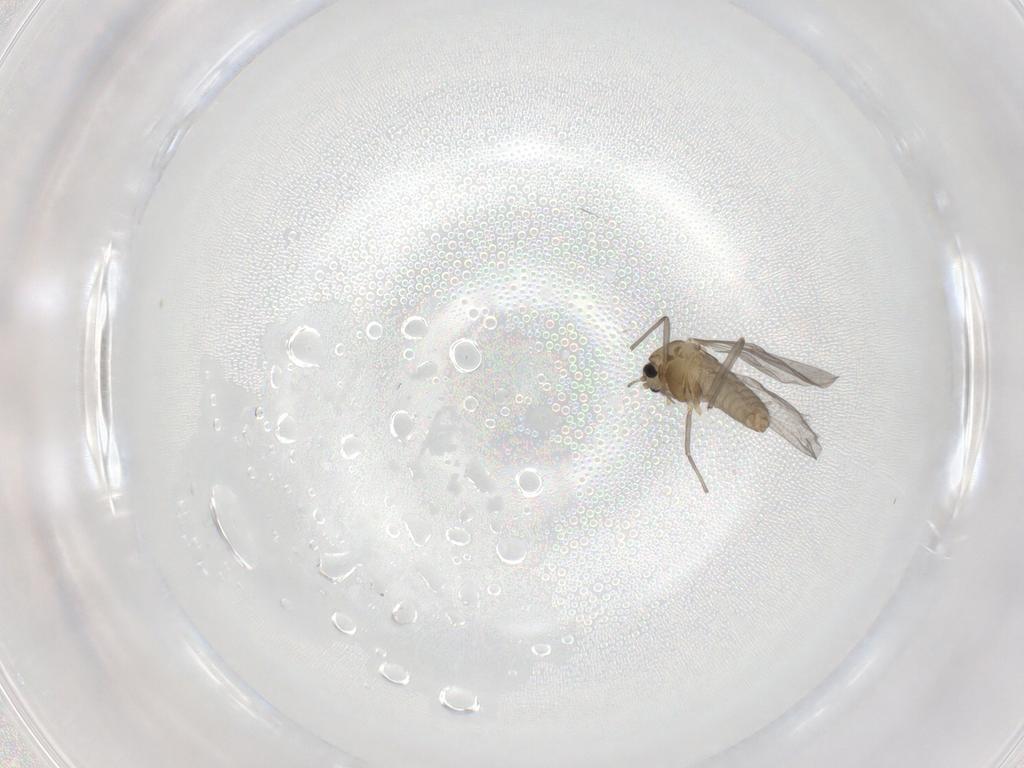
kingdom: Animalia
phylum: Arthropoda
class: Insecta
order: Diptera
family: Chironomidae
